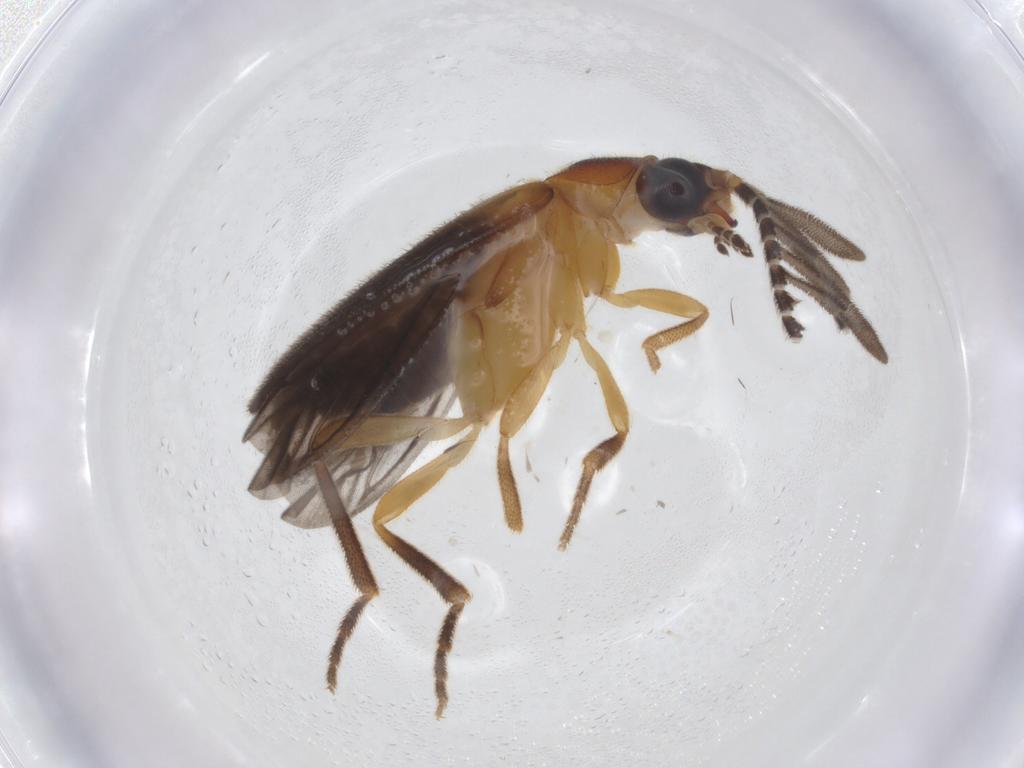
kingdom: Animalia
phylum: Arthropoda
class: Insecta
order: Coleoptera
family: Lampyridae
